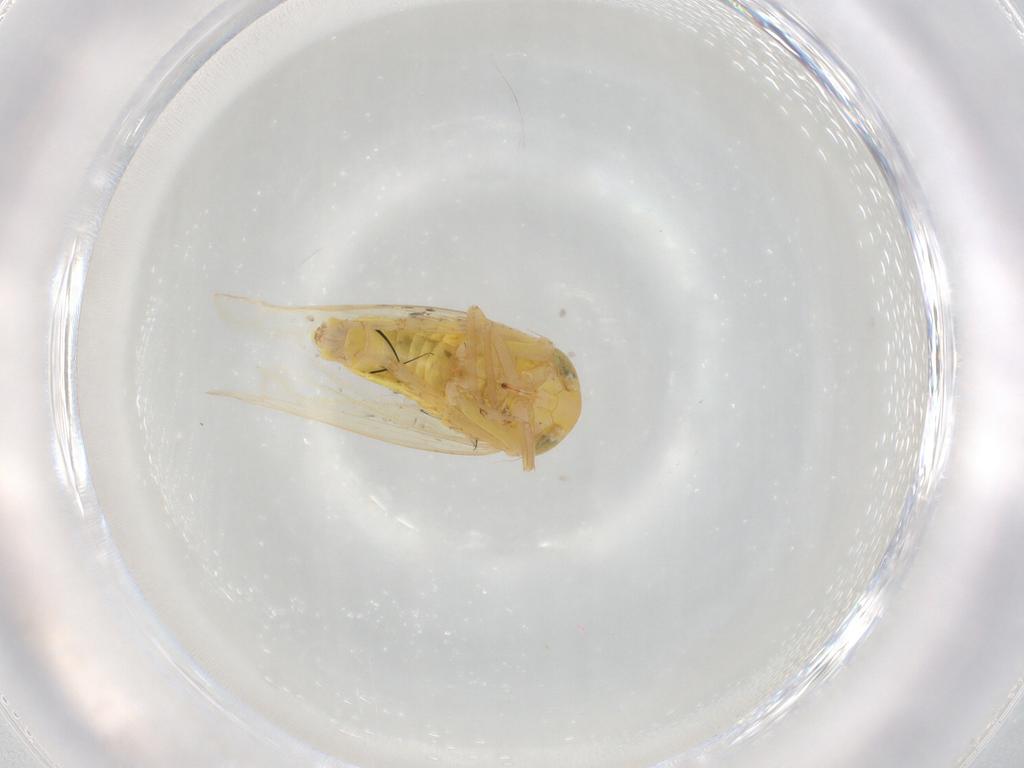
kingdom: Animalia
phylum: Arthropoda
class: Insecta
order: Hemiptera
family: Cicadellidae
